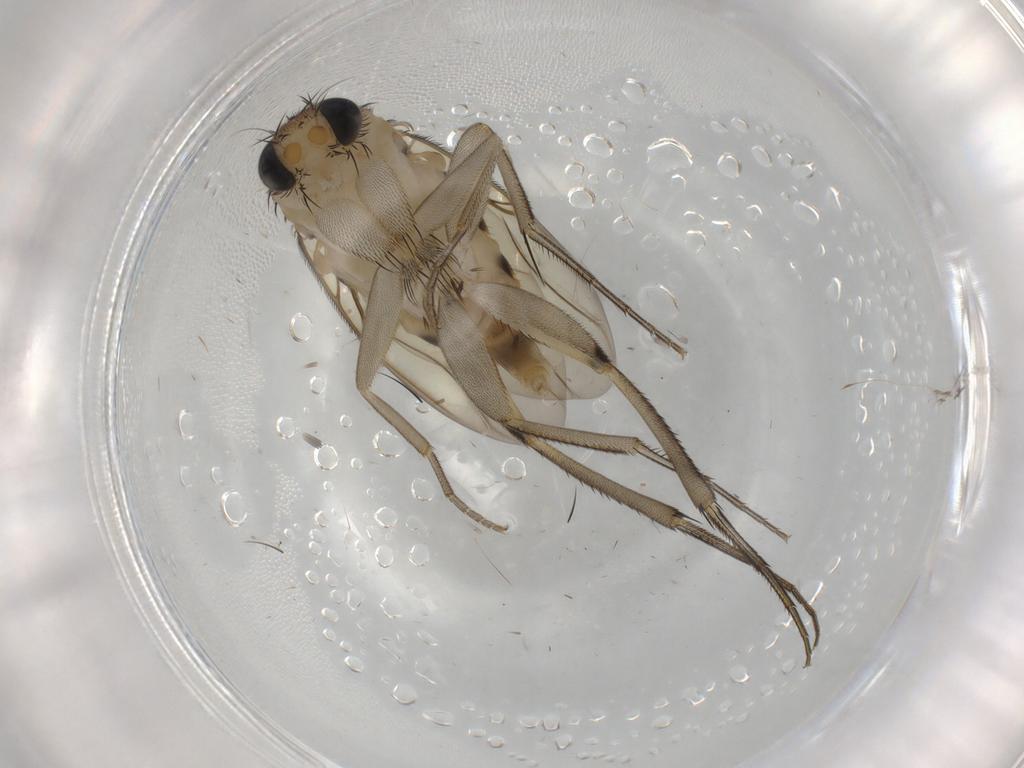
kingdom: Animalia
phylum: Arthropoda
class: Insecta
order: Diptera
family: Phoridae
